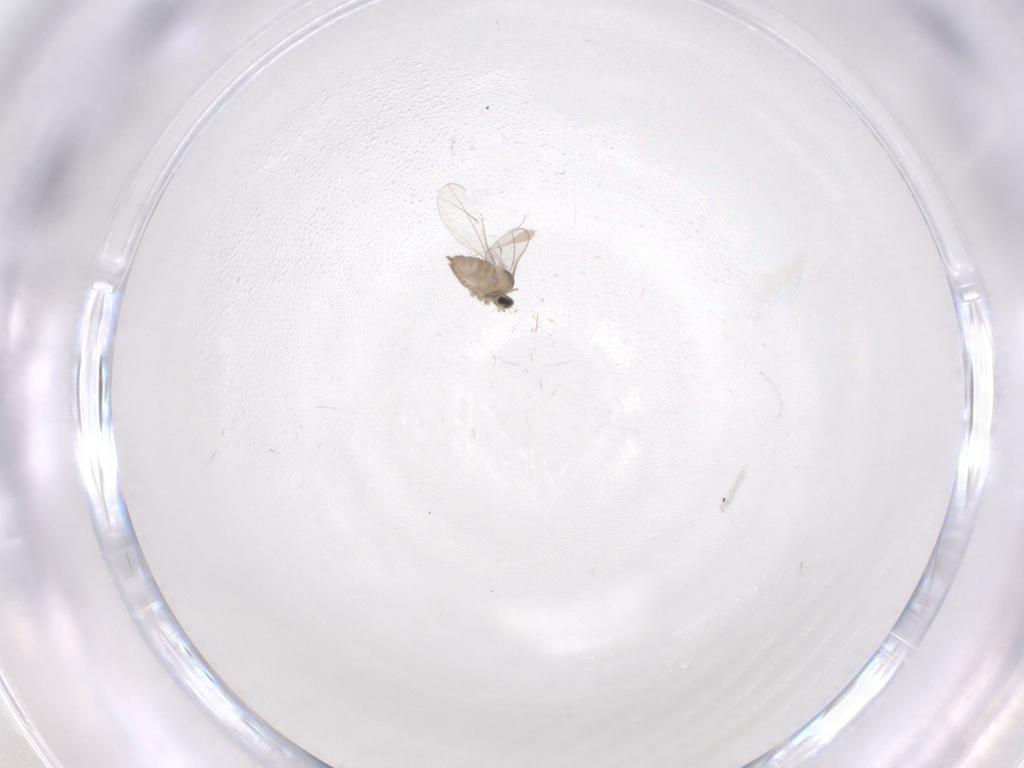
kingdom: Animalia
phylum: Arthropoda
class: Insecta
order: Diptera
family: Cecidomyiidae
